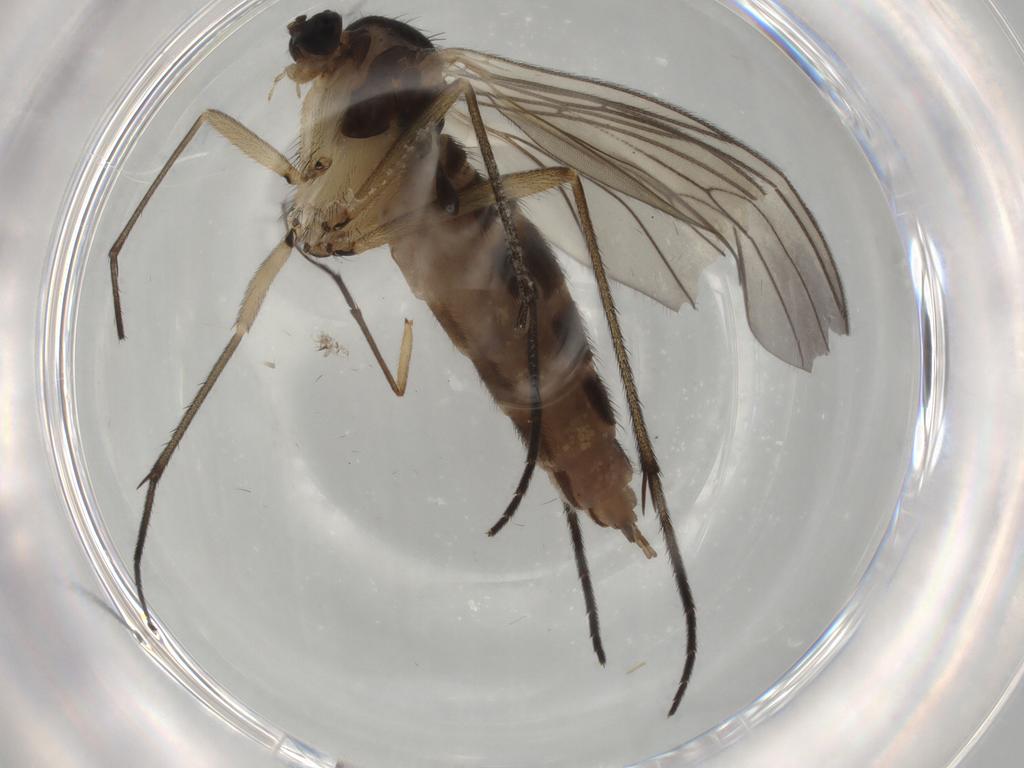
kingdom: Animalia
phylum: Arthropoda
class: Insecta
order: Diptera
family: Sciaridae
